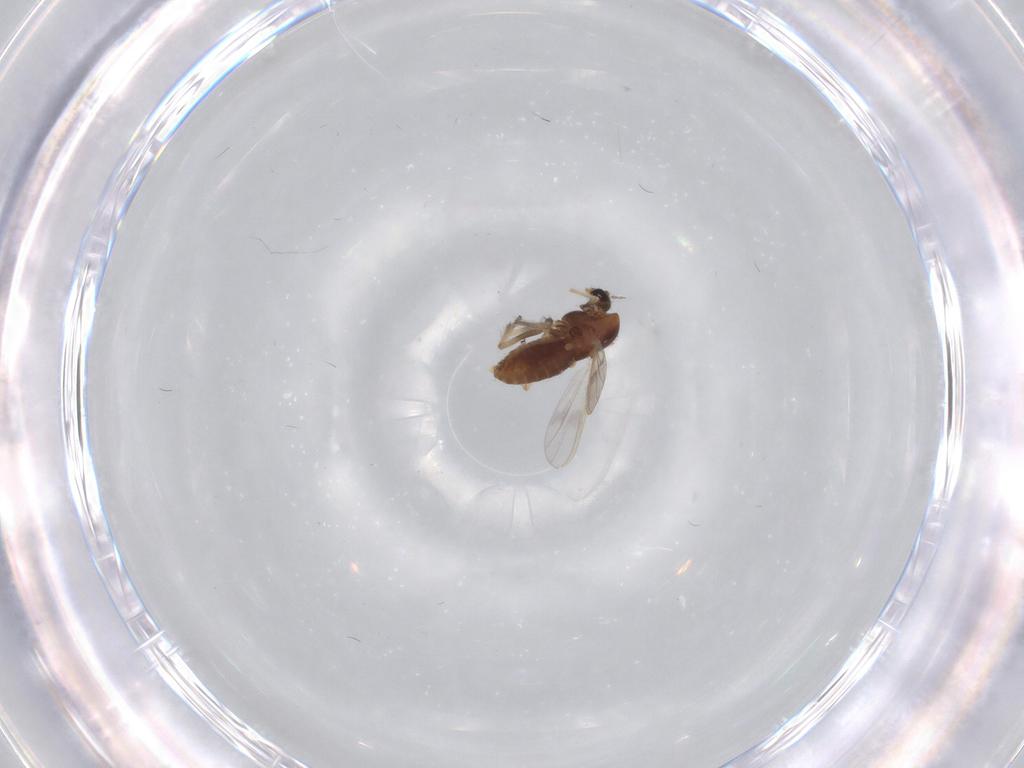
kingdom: Animalia
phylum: Arthropoda
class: Insecta
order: Diptera
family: Chironomidae
